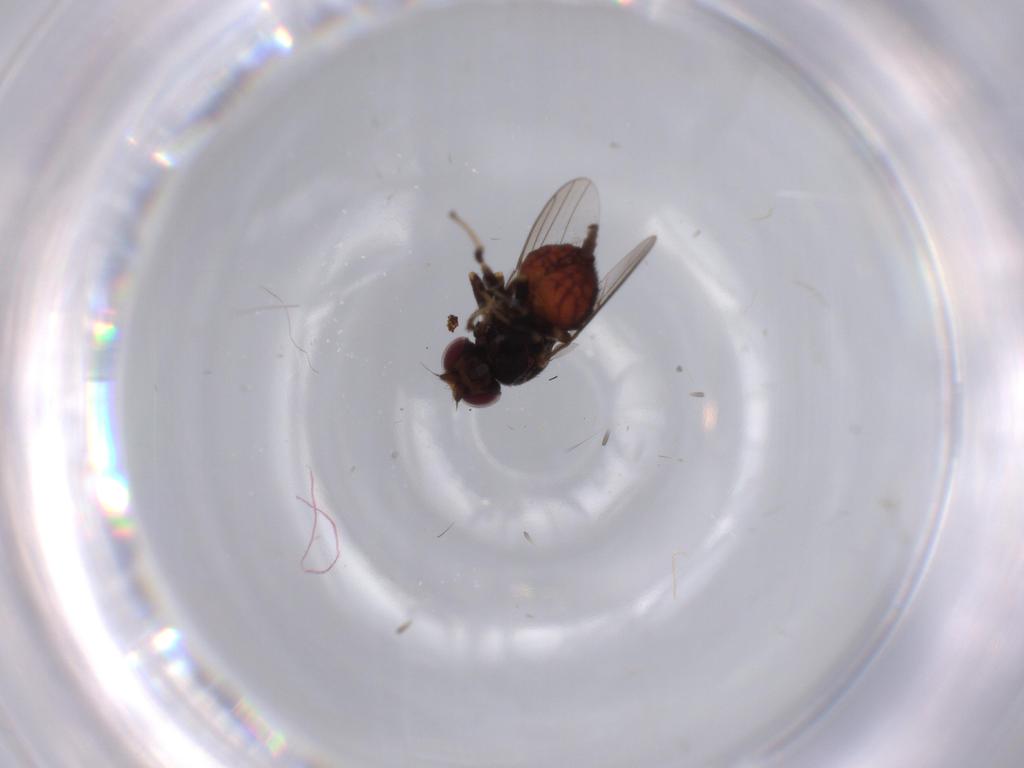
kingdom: Animalia
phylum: Arthropoda
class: Insecta
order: Diptera
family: Chloropidae
